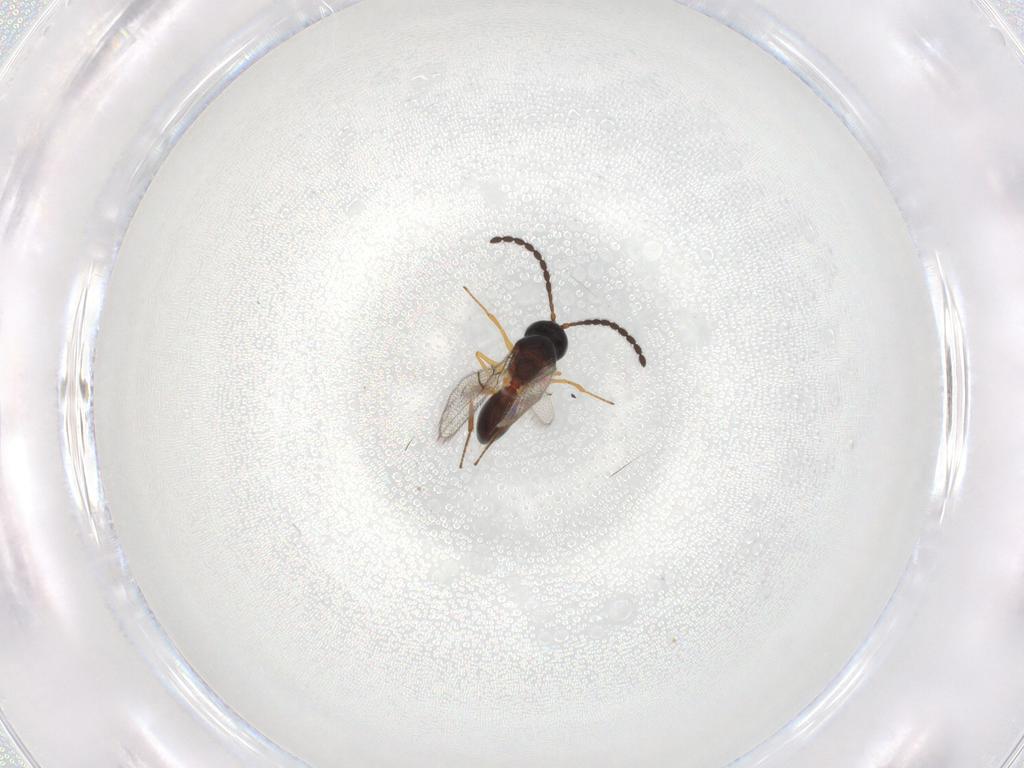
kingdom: Animalia
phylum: Arthropoda
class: Insecta
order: Hymenoptera
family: Figitidae
